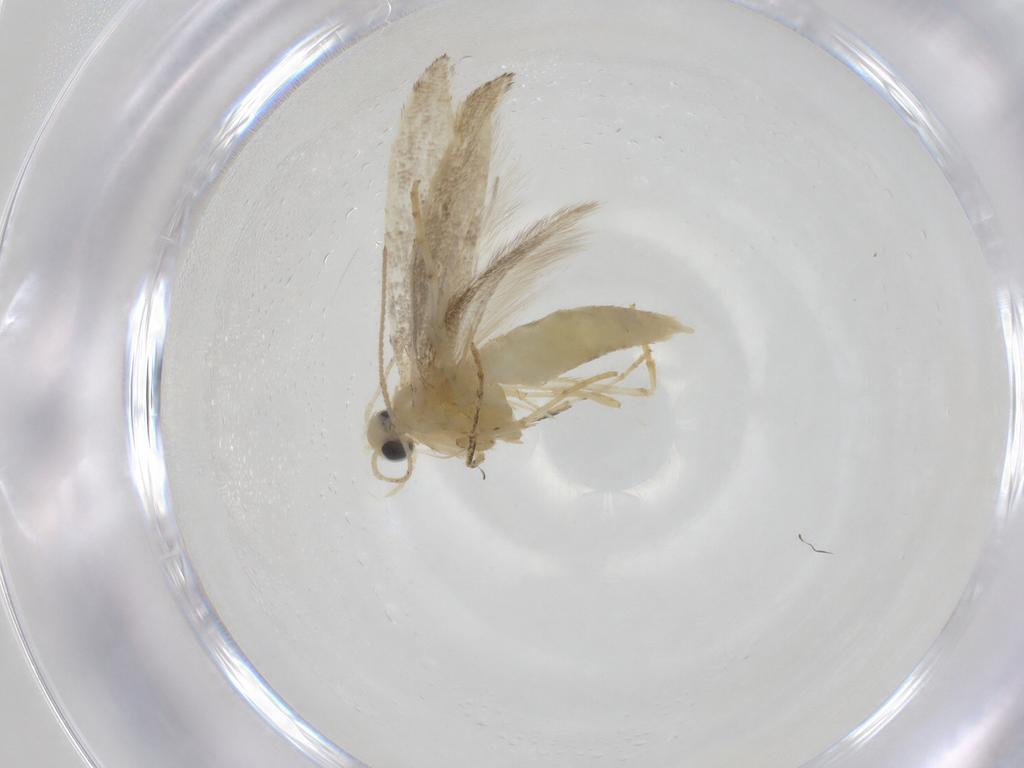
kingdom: Animalia
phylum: Arthropoda
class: Insecta
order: Lepidoptera
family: Argyresthiidae
